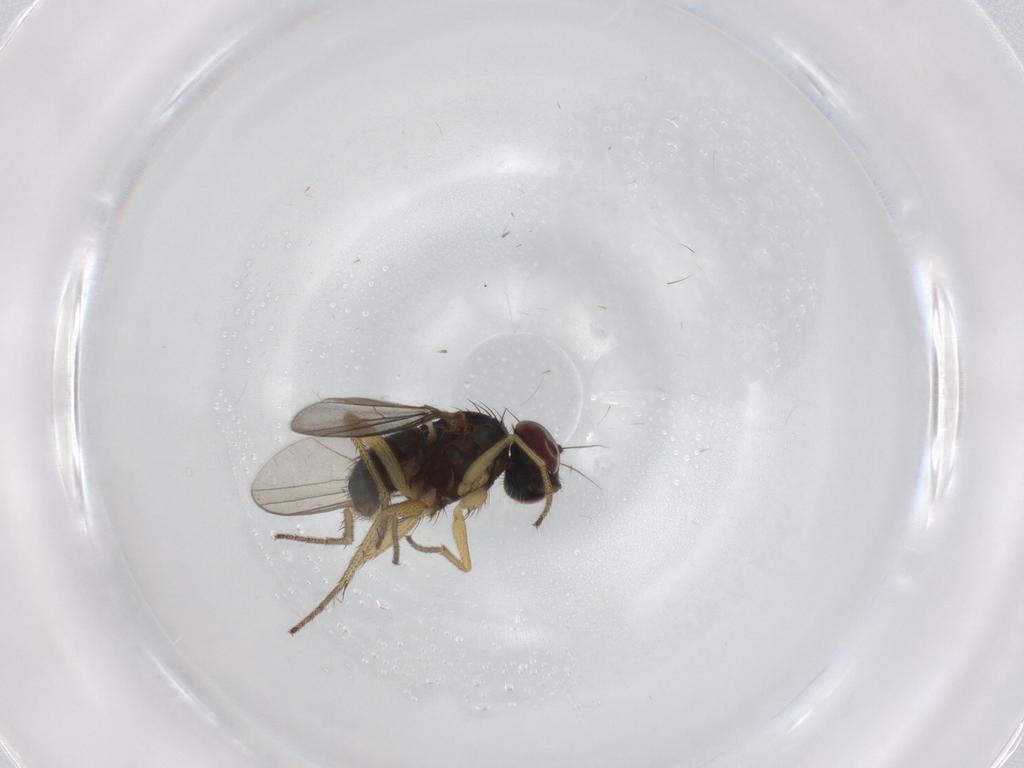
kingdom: Animalia
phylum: Arthropoda
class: Insecta
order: Diptera
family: Dolichopodidae
